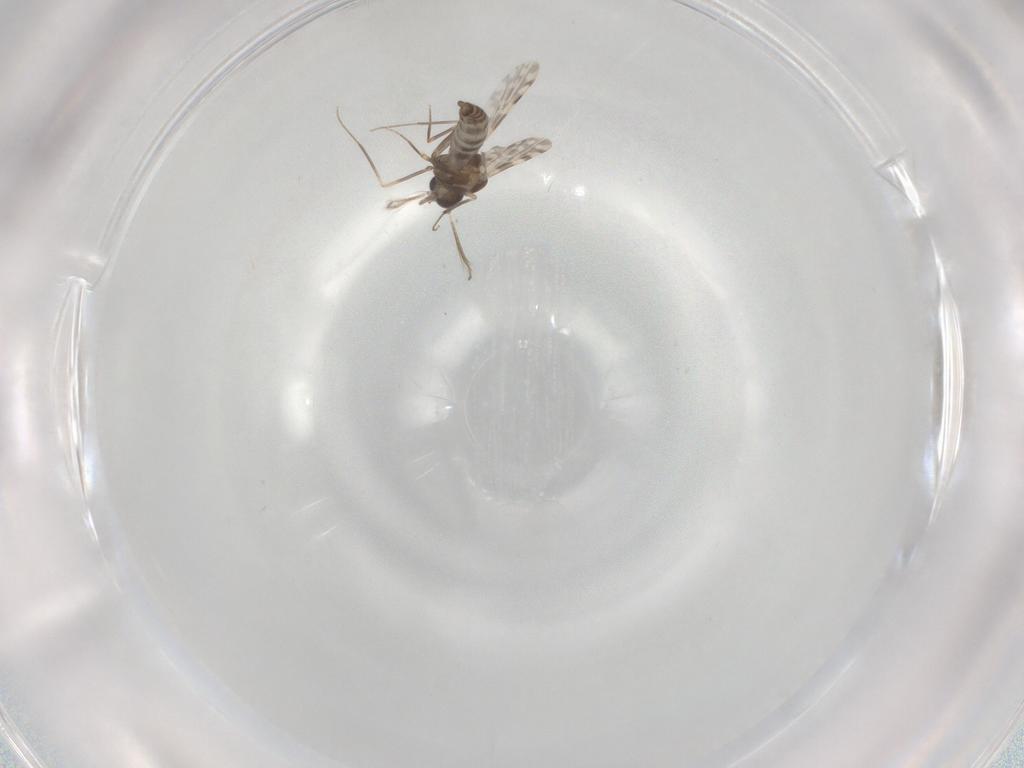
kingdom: Animalia
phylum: Arthropoda
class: Insecta
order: Diptera
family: Ceratopogonidae
